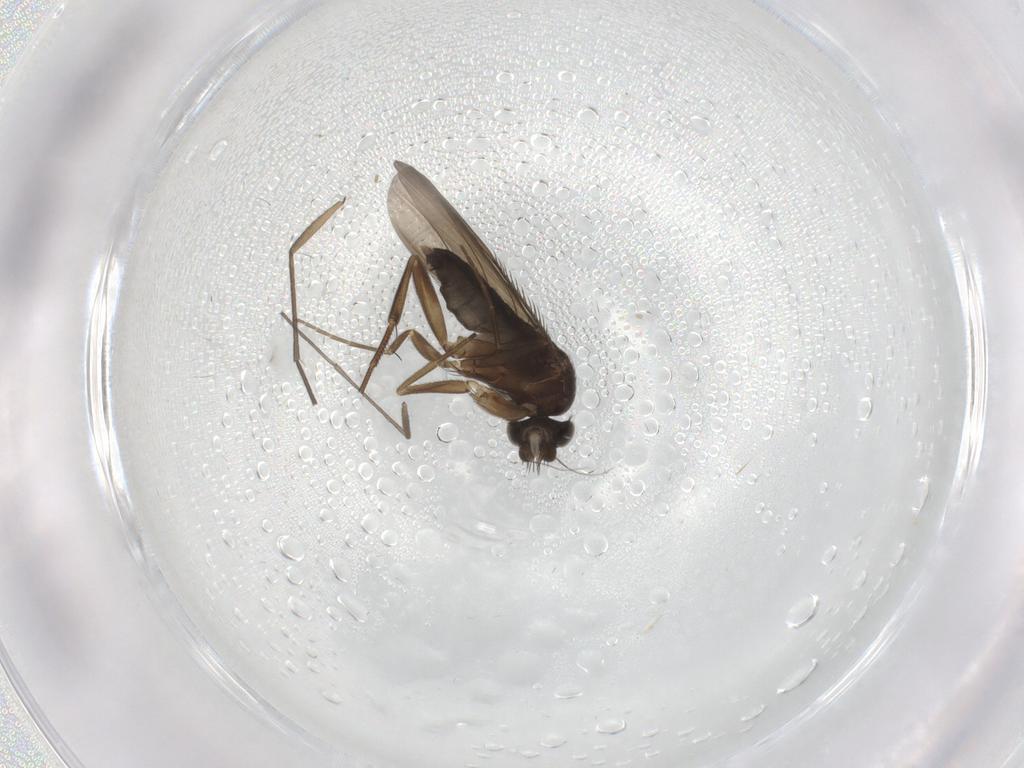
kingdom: Animalia
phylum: Arthropoda
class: Insecta
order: Diptera
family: Phoridae
